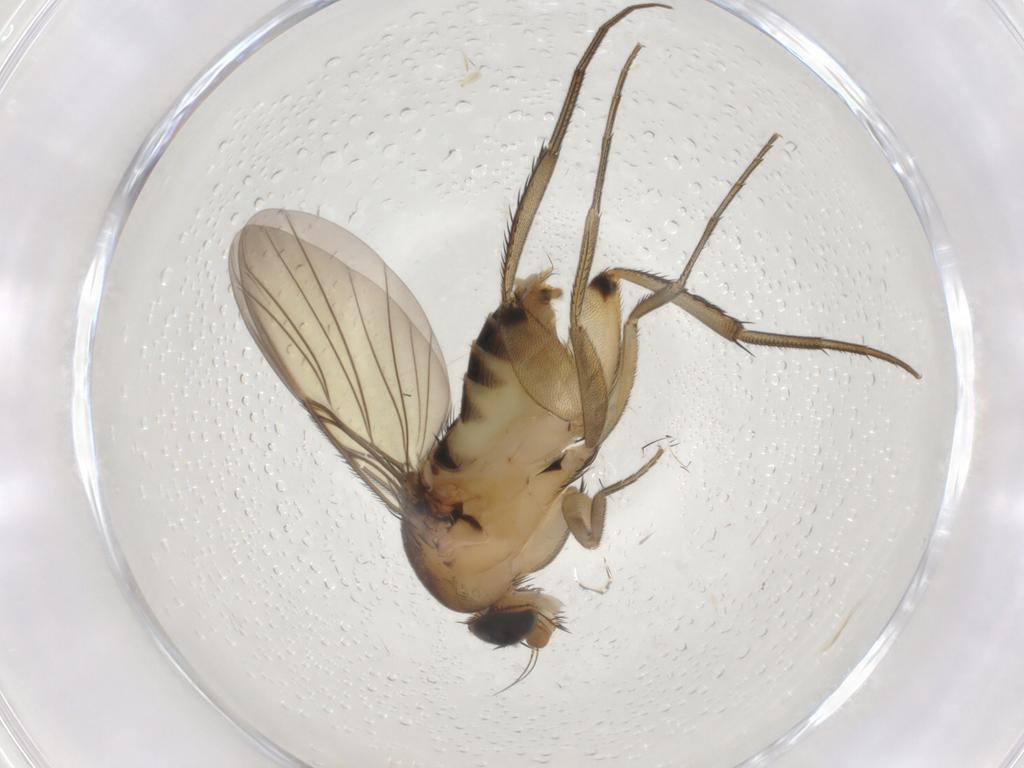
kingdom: Animalia
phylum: Arthropoda
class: Insecta
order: Diptera
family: Phoridae
